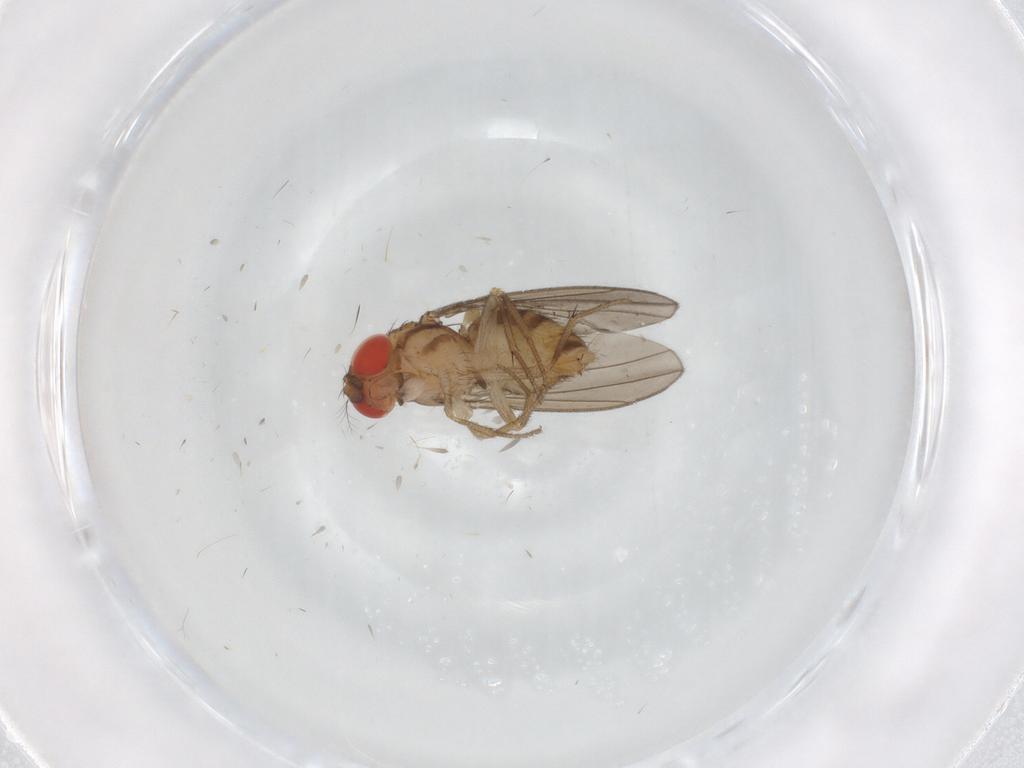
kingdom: Animalia
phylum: Arthropoda
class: Insecta
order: Diptera
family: Drosophilidae
